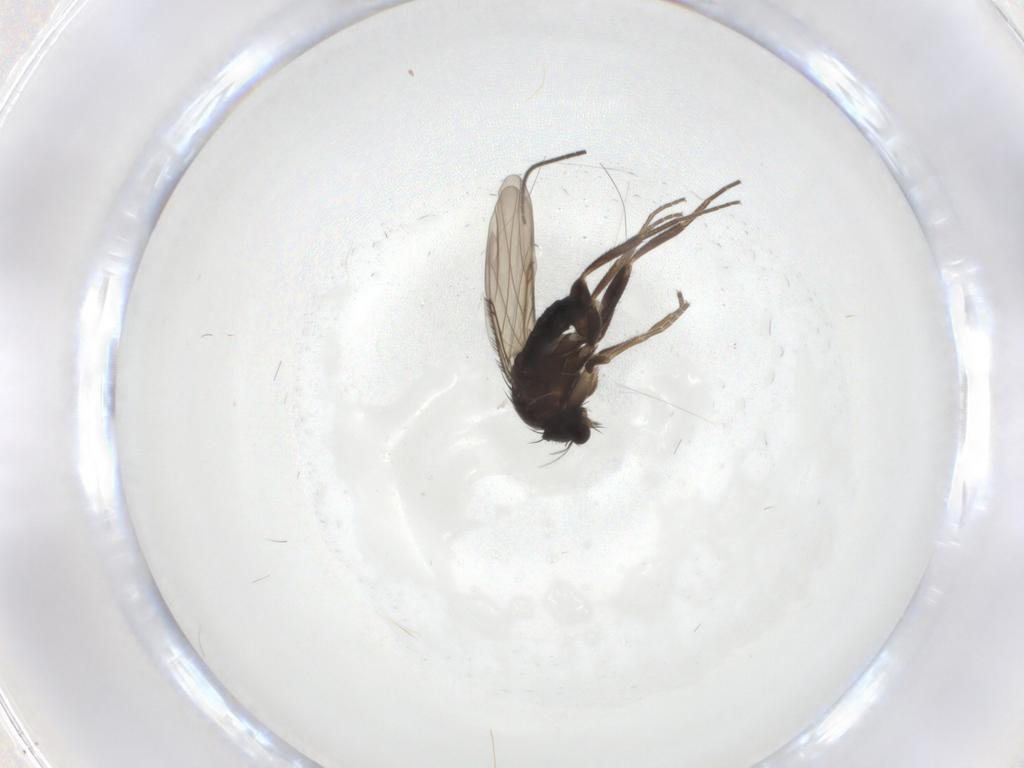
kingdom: Animalia
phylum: Arthropoda
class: Insecta
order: Diptera
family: Phoridae
